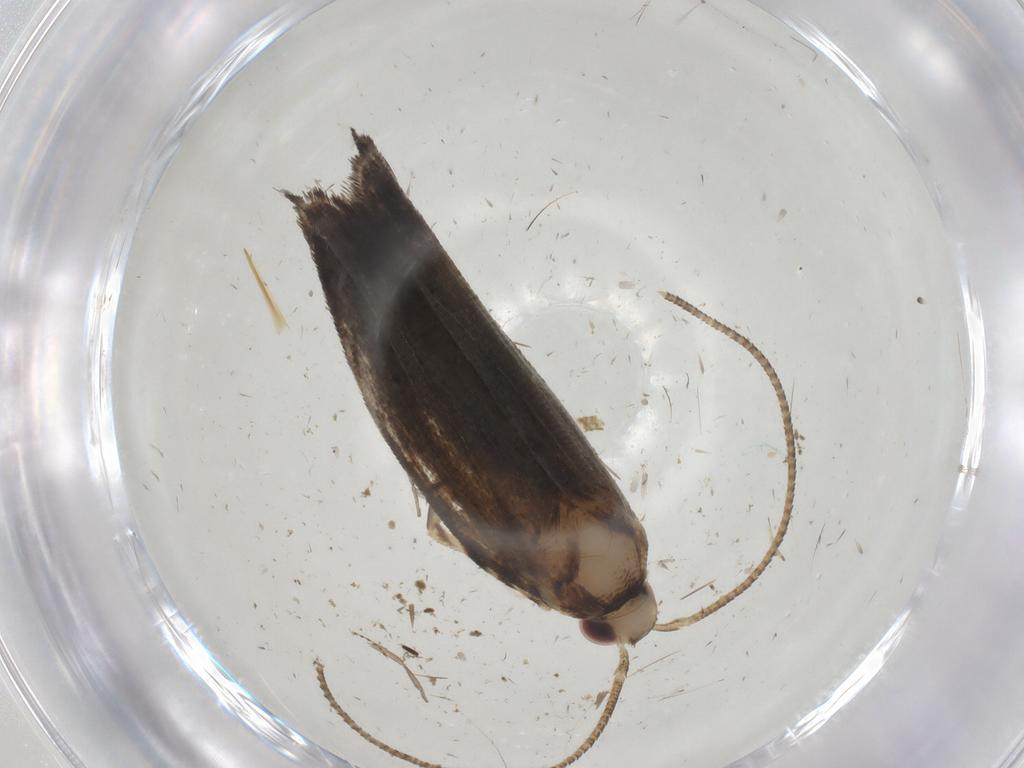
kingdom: Animalia
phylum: Arthropoda
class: Insecta
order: Lepidoptera
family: Gelechiidae
